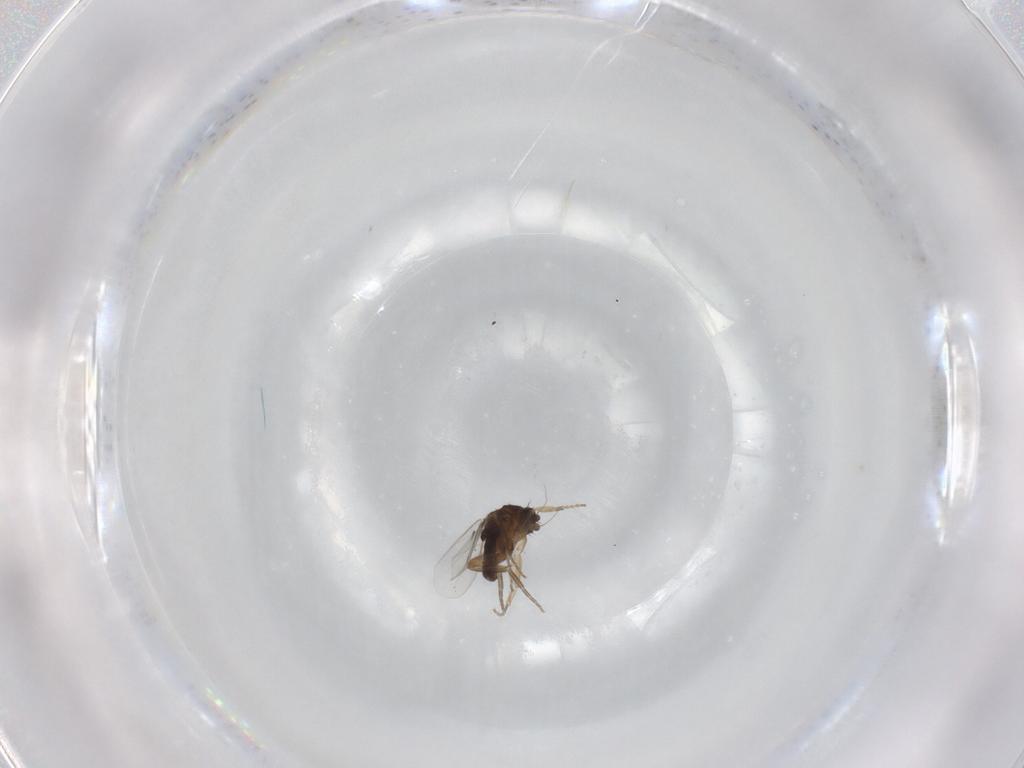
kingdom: Animalia
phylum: Arthropoda
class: Insecta
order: Diptera
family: Phoridae
